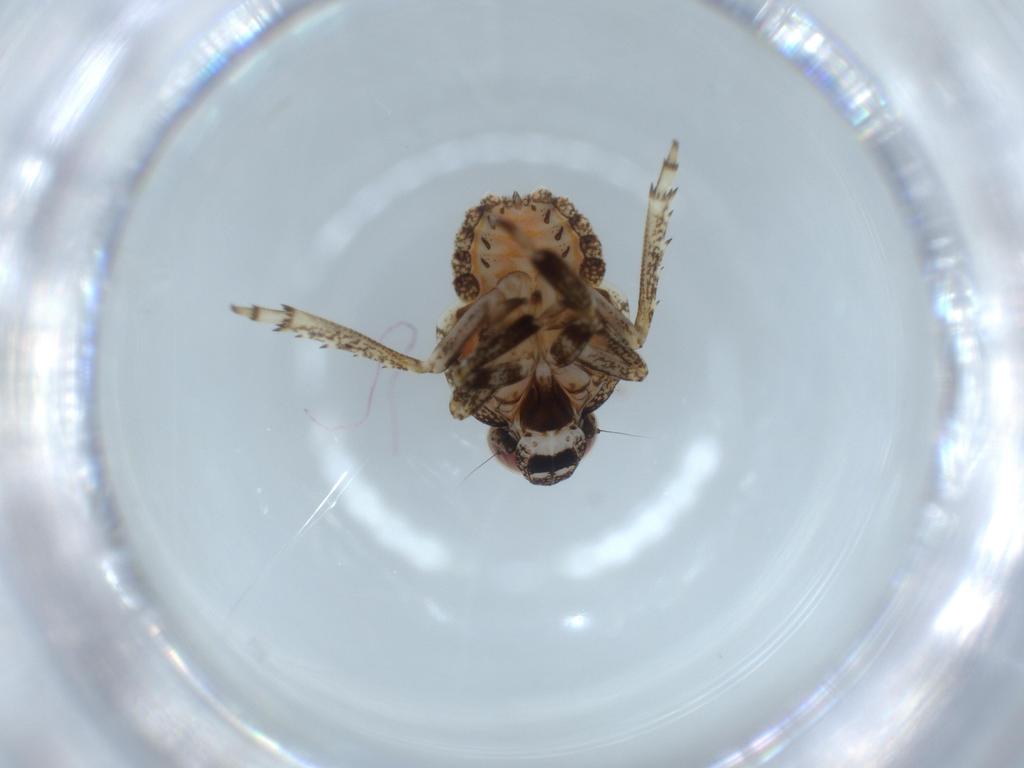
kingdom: Animalia
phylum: Arthropoda
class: Insecta
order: Hemiptera
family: Issidae
